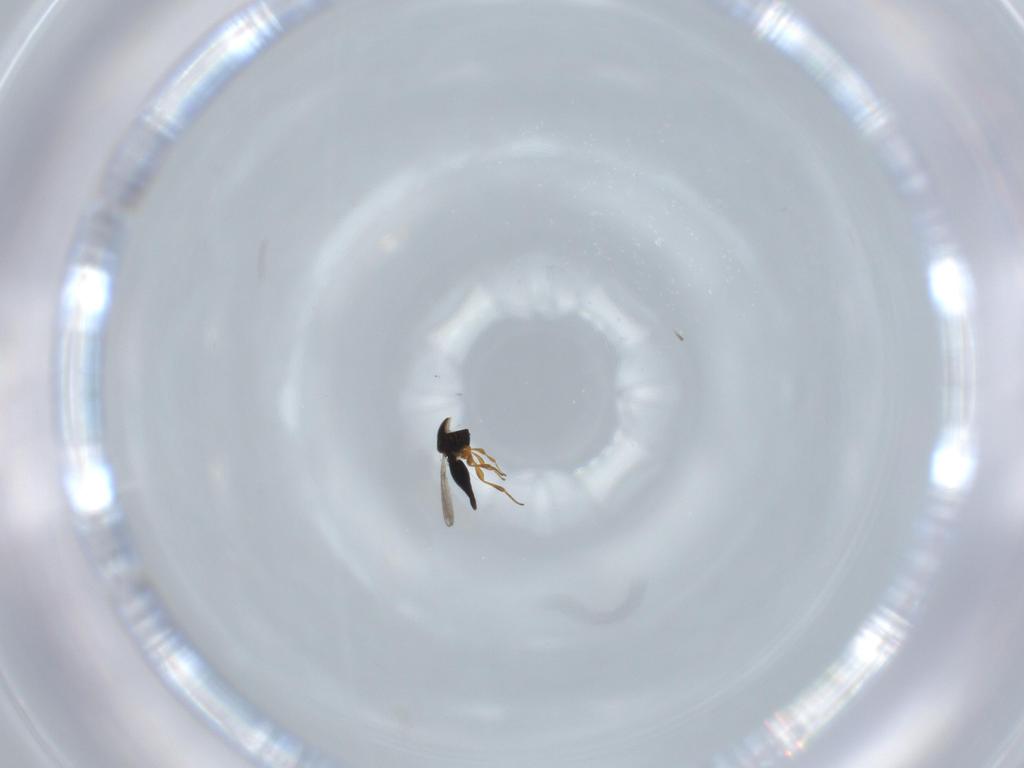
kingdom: Animalia
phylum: Arthropoda
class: Insecta
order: Hymenoptera
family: Platygastridae
